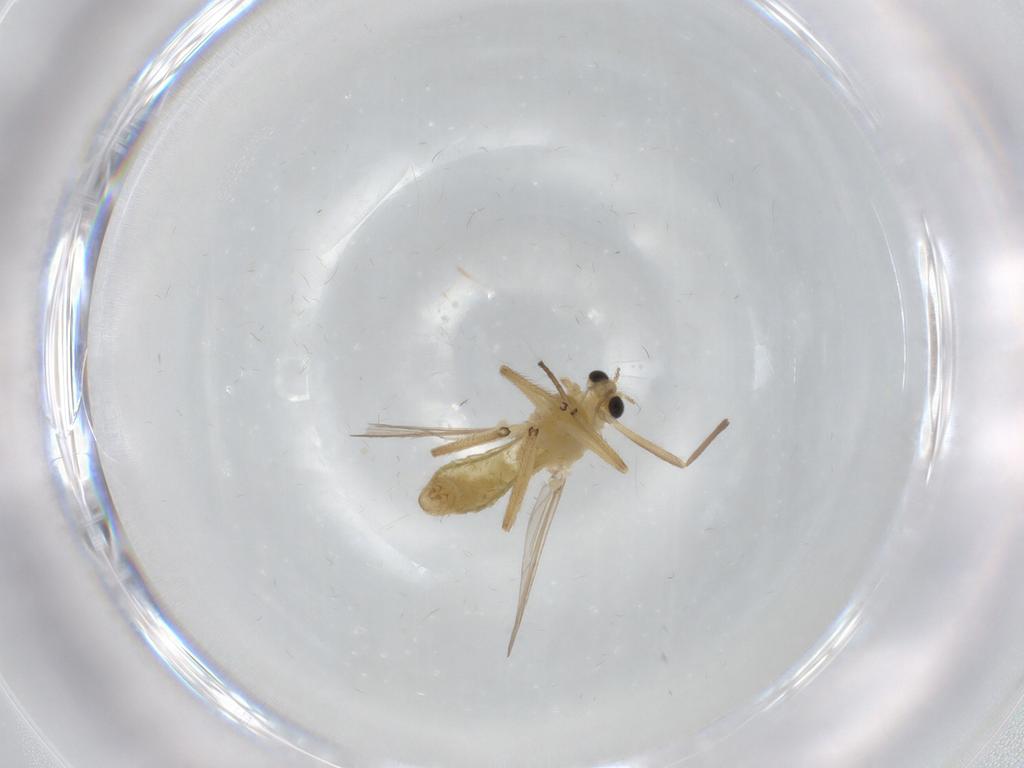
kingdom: Animalia
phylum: Arthropoda
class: Insecta
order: Diptera
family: Chironomidae
